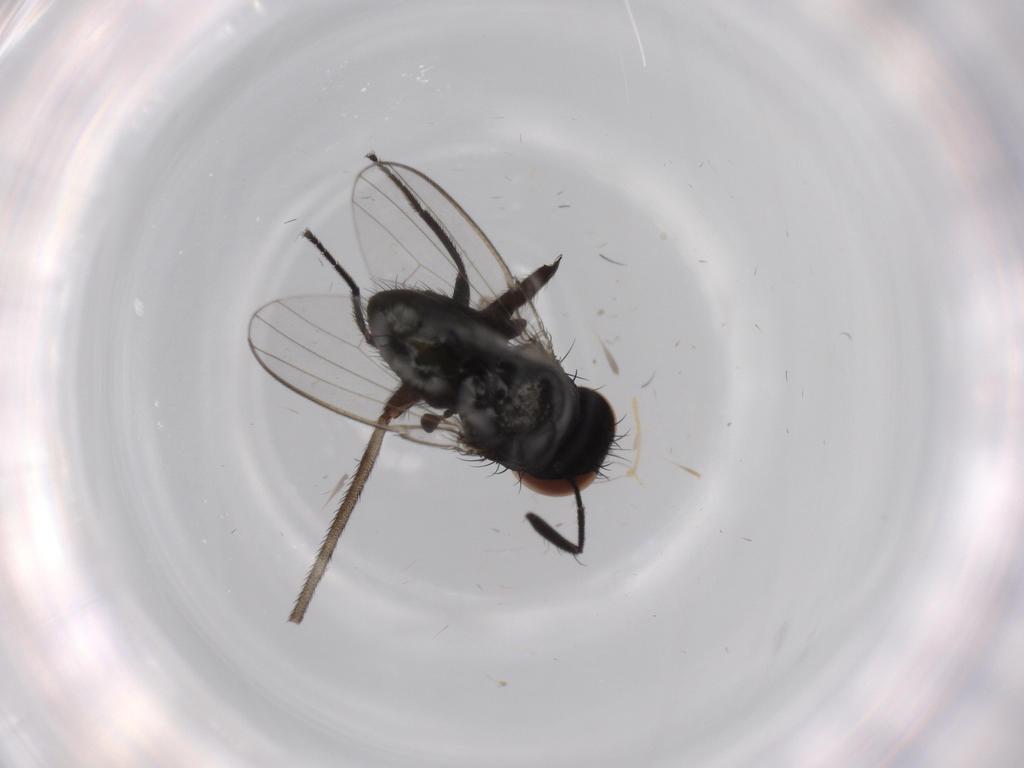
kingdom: Animalia
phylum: Arthropoda
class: Insecta
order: Diptera
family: Milichiidae
